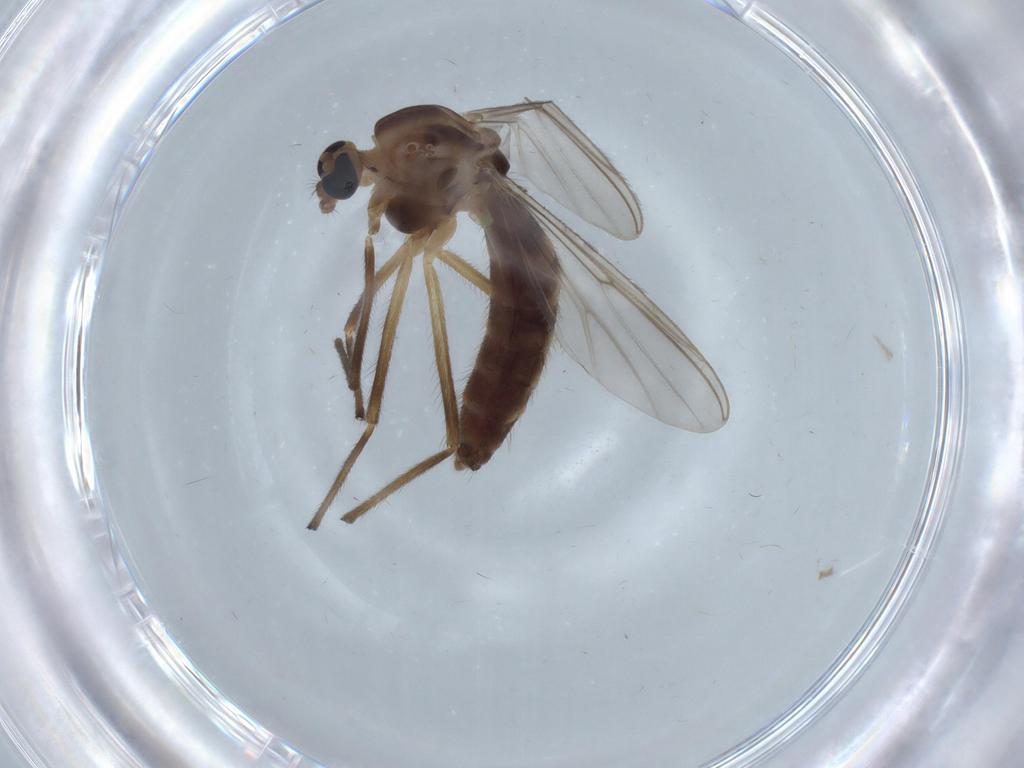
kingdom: Animalia
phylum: Arthropoda
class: Insecta
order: Diptera
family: Chironomidae
